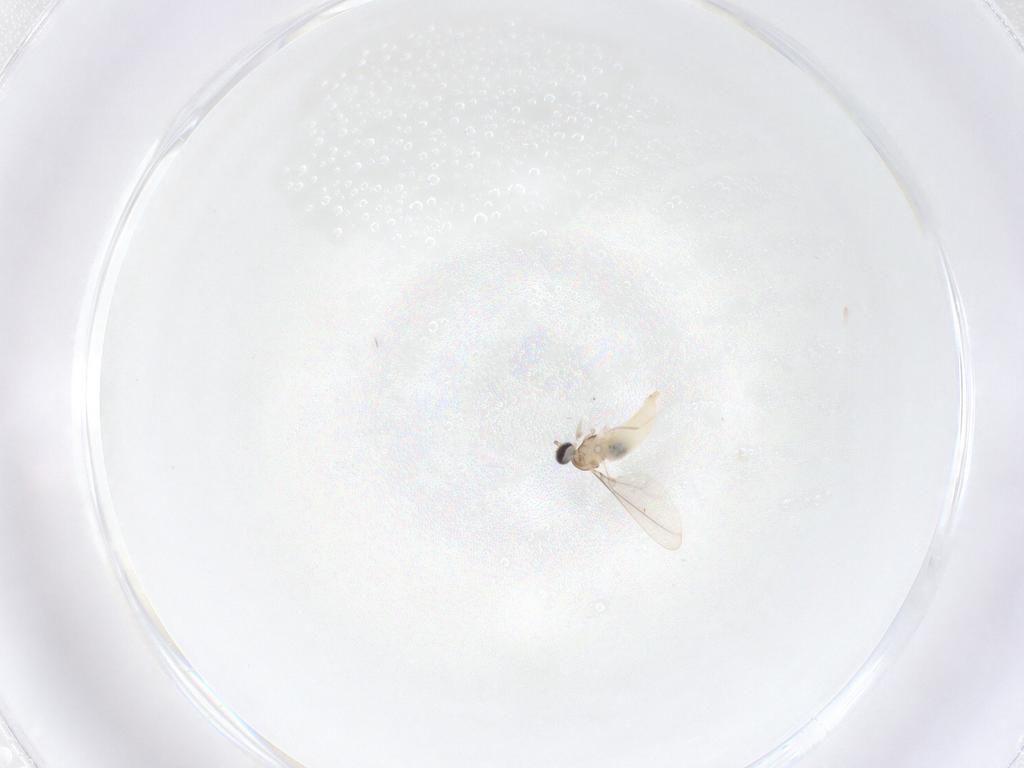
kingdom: Animalia
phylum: Arthropoda
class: Insecta
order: Diptera
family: Cecidomyiidae
